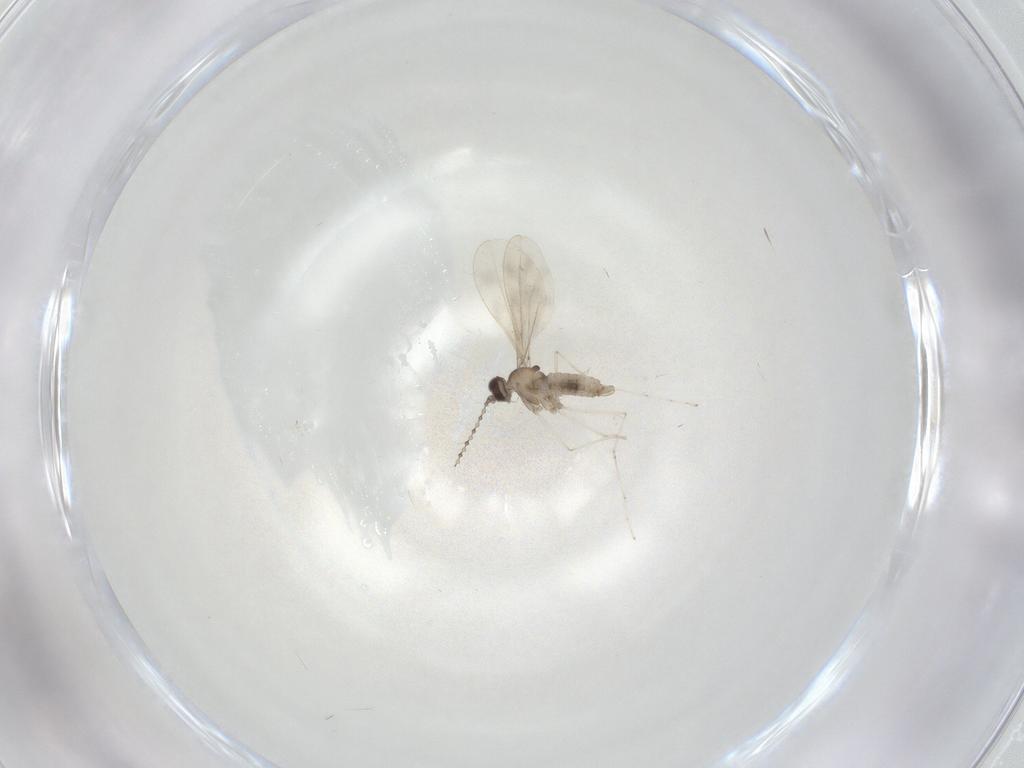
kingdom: Animalia
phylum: Arthropoda
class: Insecta
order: Diptera
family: Cecidomyiidae
